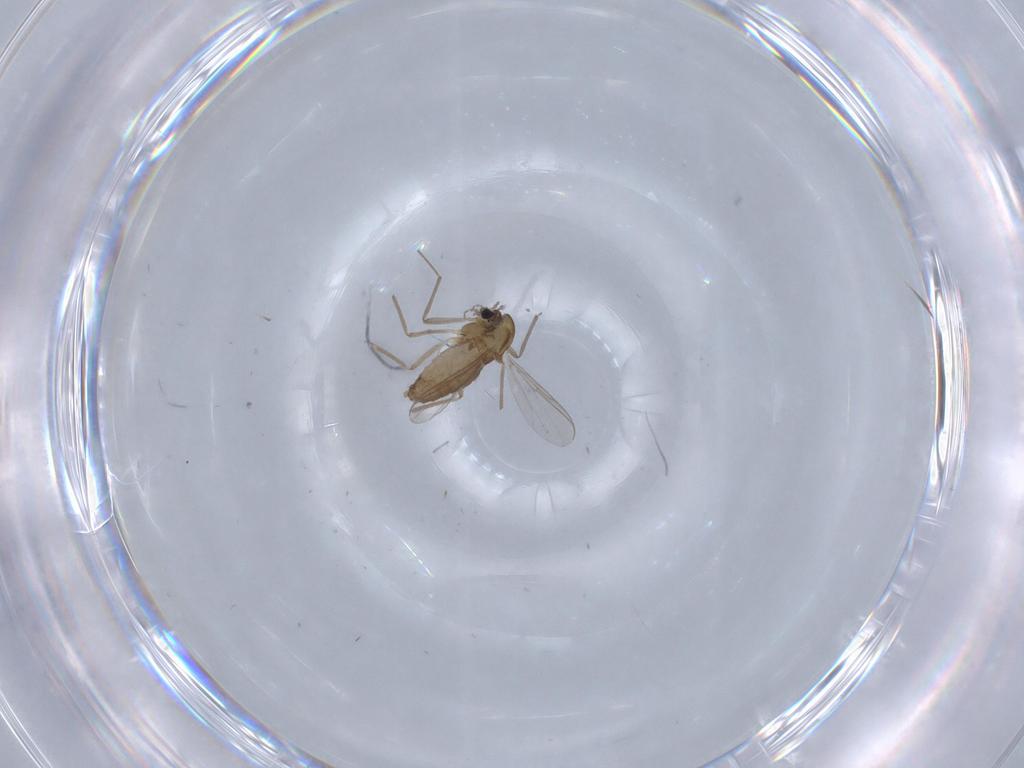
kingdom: Animalia
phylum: Arthropoda
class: Insecta
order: Diptera
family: Chironomidae
